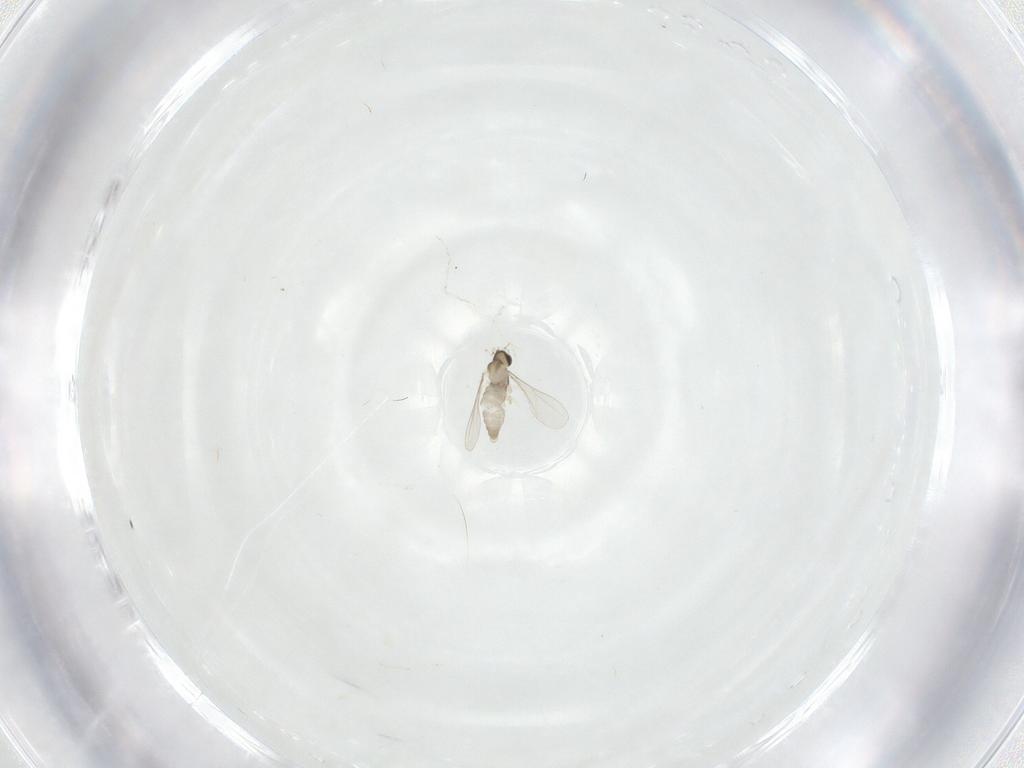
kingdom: Animalia
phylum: Arthropoda
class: Insecta
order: Diptera
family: Cecidomyiidae
